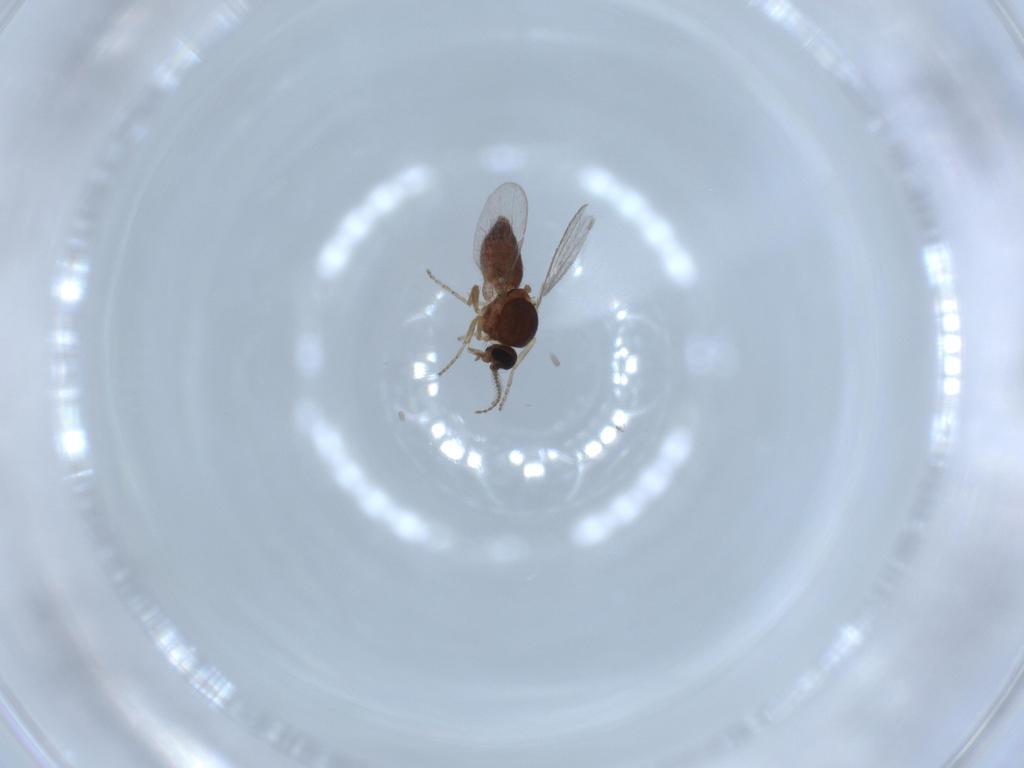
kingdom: Animalia
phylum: Arthropoda
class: Insecta
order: Diptera
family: Ceratopogonidae
